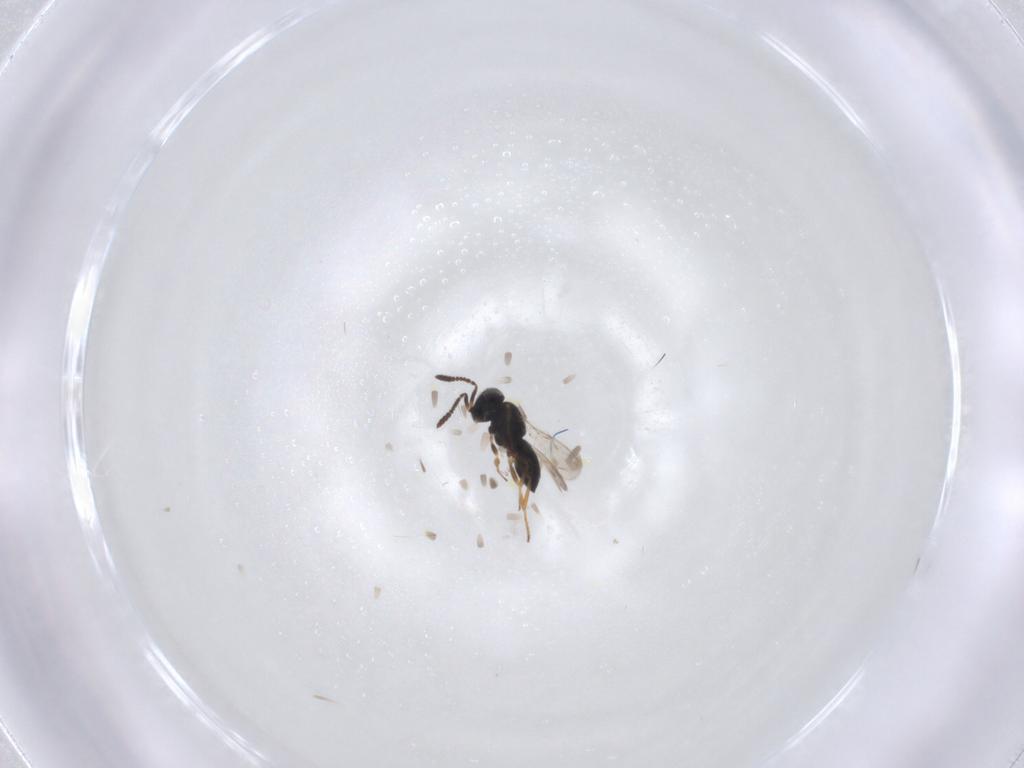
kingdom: Animalia
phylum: Arthropoda
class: Insecta
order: Hymenoptera
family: Scelionidae
